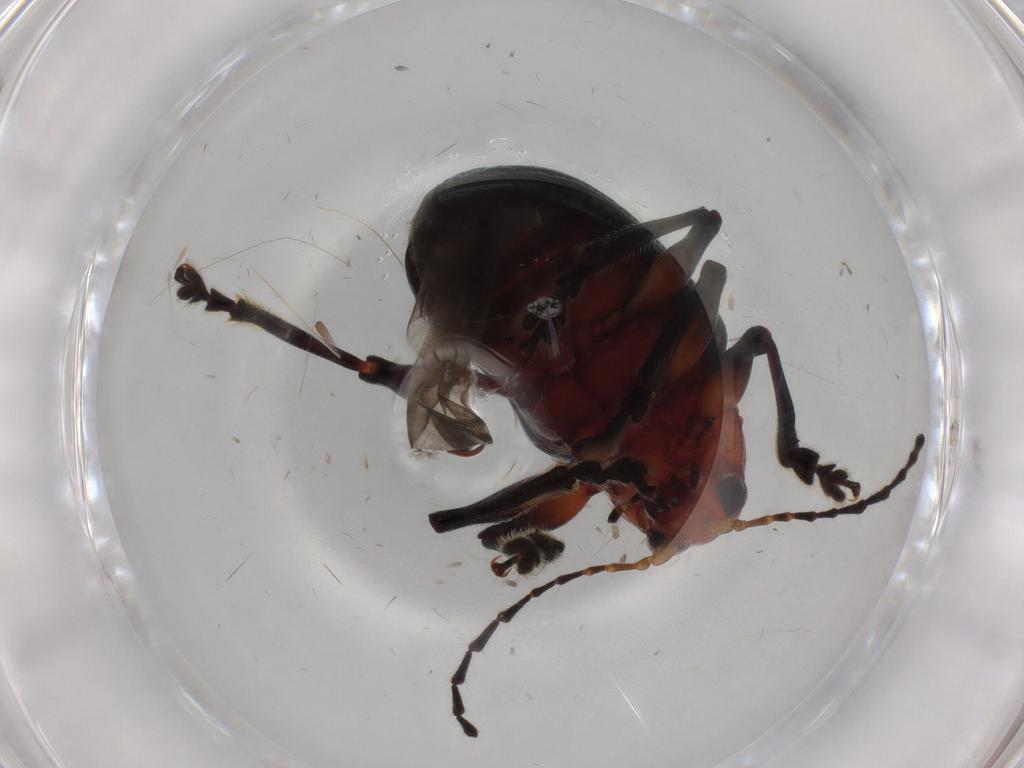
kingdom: Animalia
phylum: Arthropoda
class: Insecta
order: Coleoptera
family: Chrysomelidae
